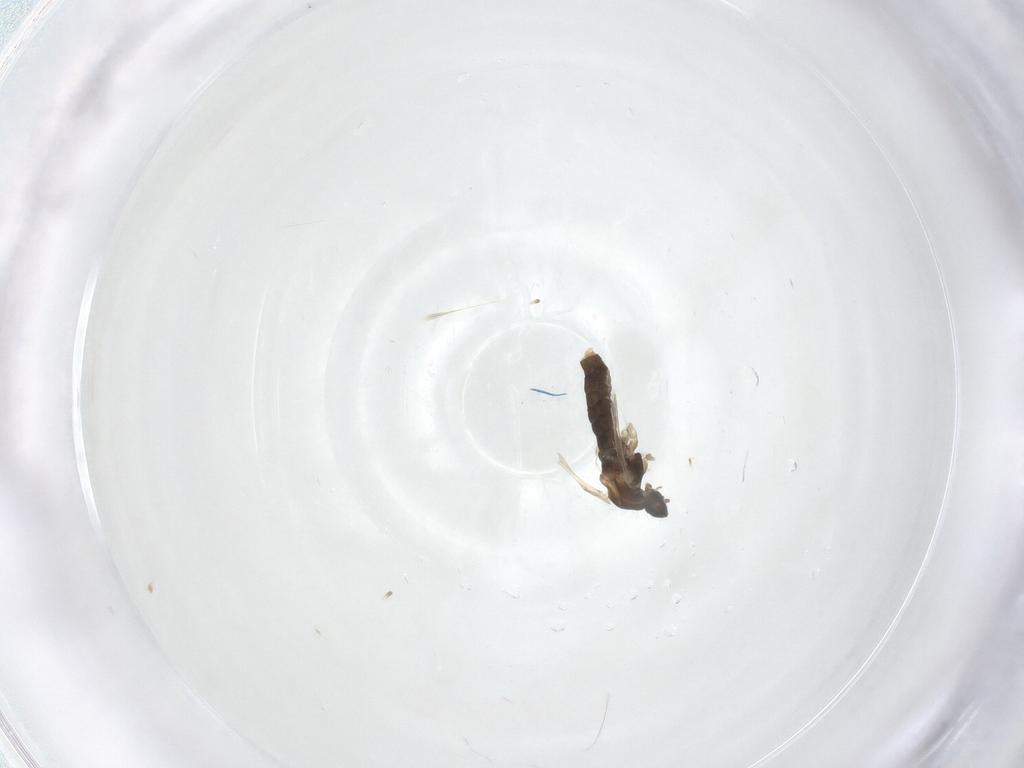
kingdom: Animalia
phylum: Arthropoda
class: Insecta
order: Diptera
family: Cecidomyiidae
